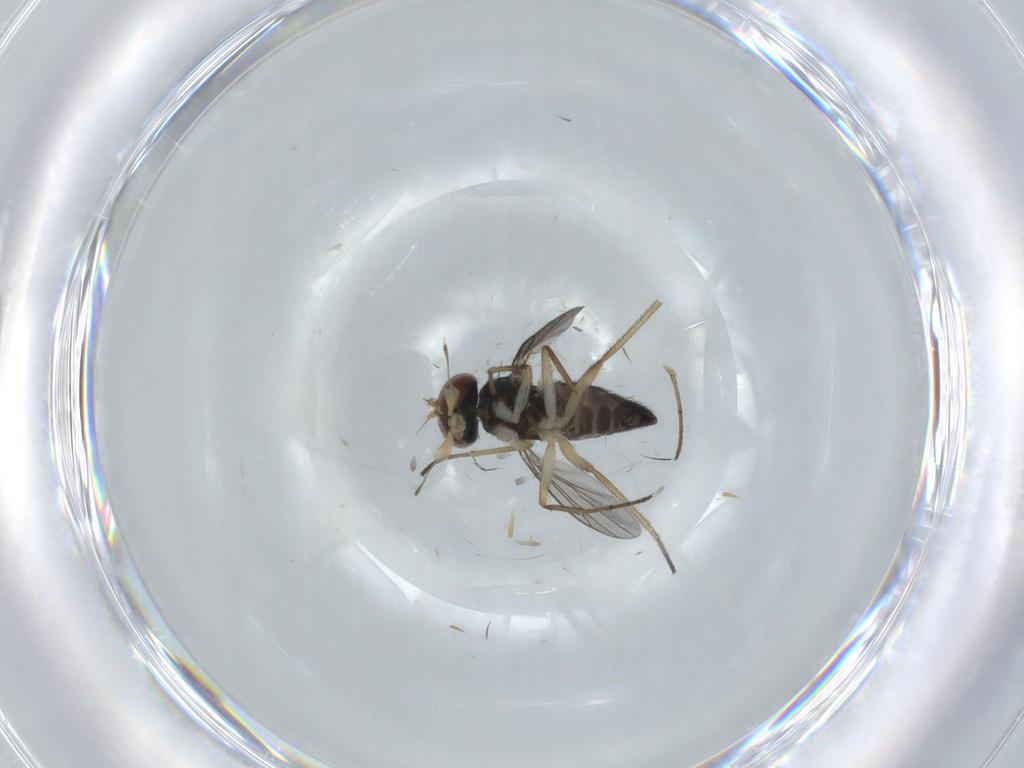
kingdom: Animalia
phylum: Arthropoda
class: Insecta
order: Diptera
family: Dolichopodidae
